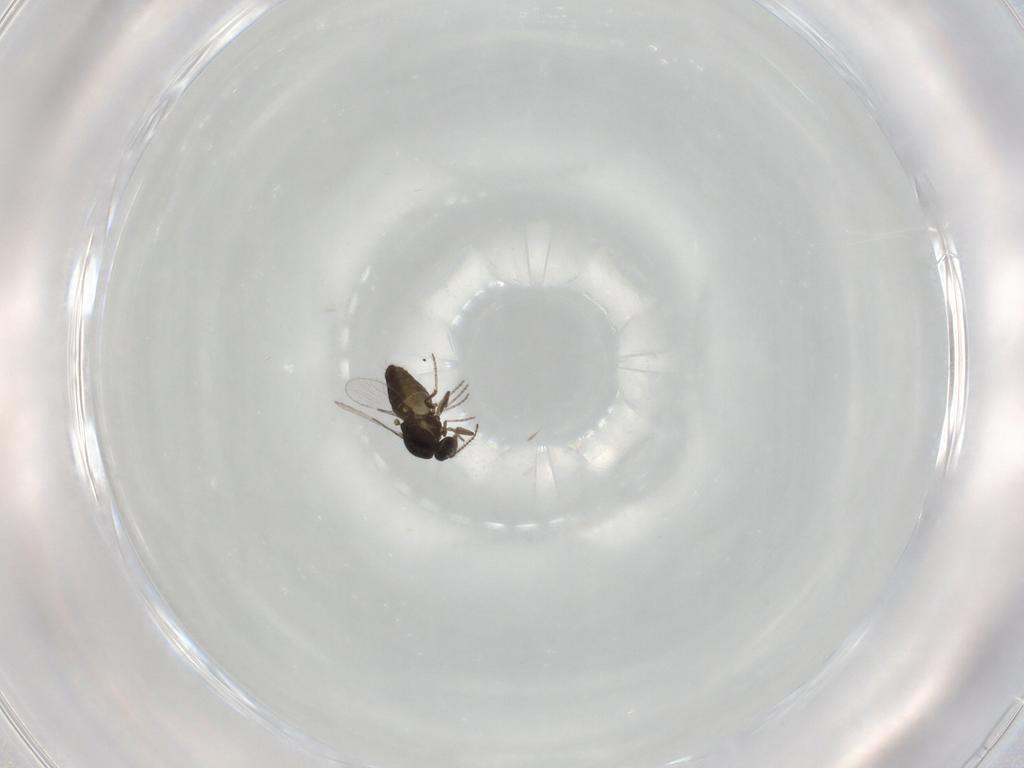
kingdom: Animalia
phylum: Arthropoda
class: Insecta
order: Diptera
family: Ceratopogonidae
